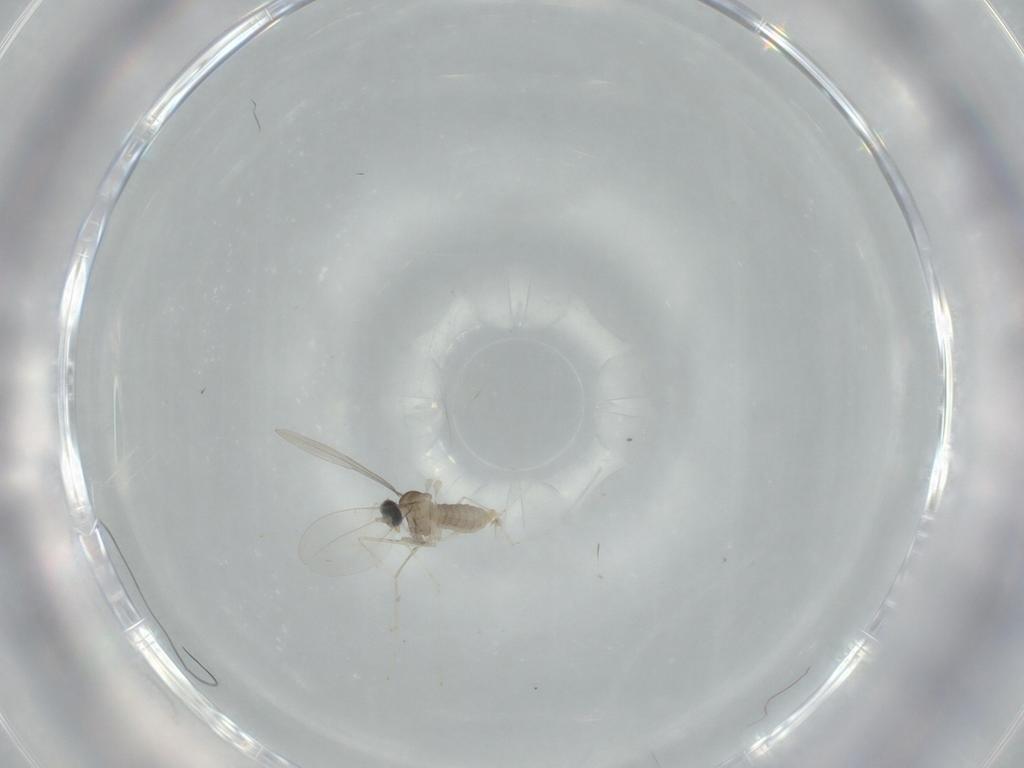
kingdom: Animalia
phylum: Arthropoda
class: Insecta
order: Diptera
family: Cecidomyiidae
